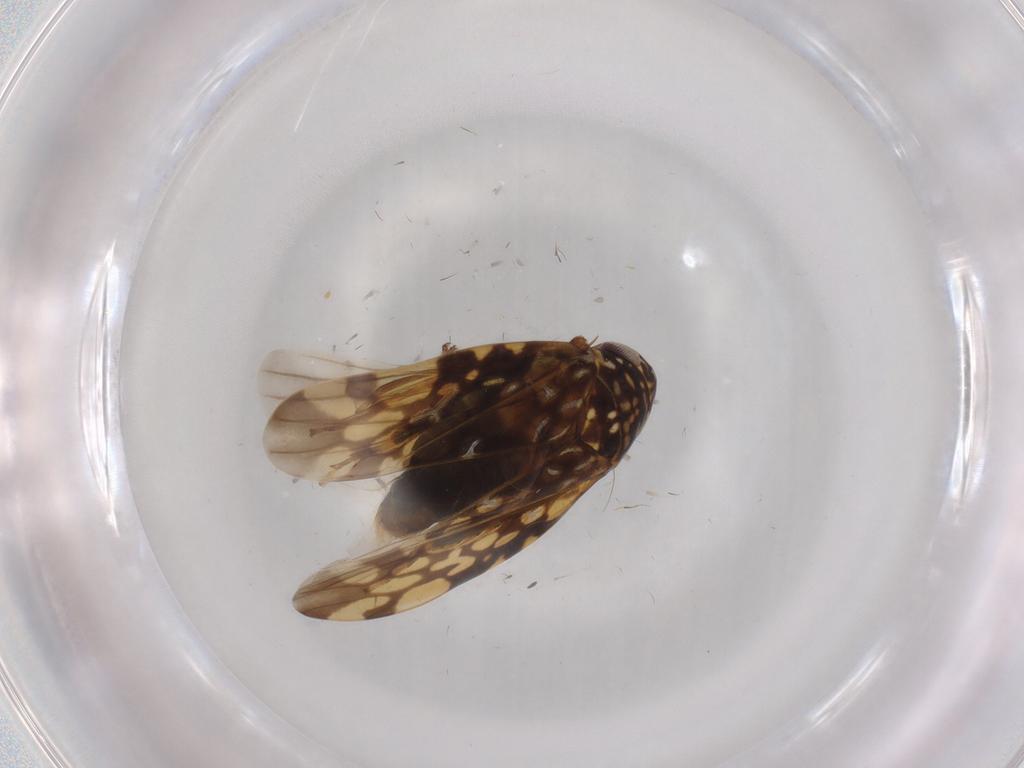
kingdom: Animalia
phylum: Arthropoda
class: Insecta
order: Hemiptera
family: Cicadellidae
